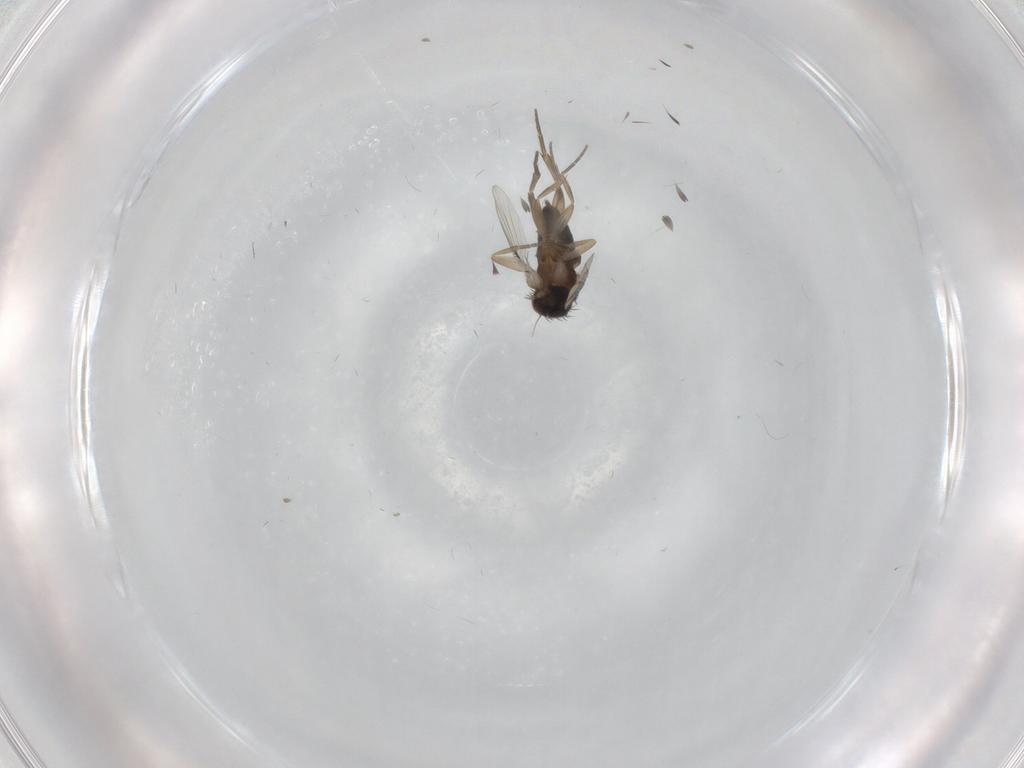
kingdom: Animalia
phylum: Arthropoda
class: Insecta
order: Diptera
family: Phoridae
